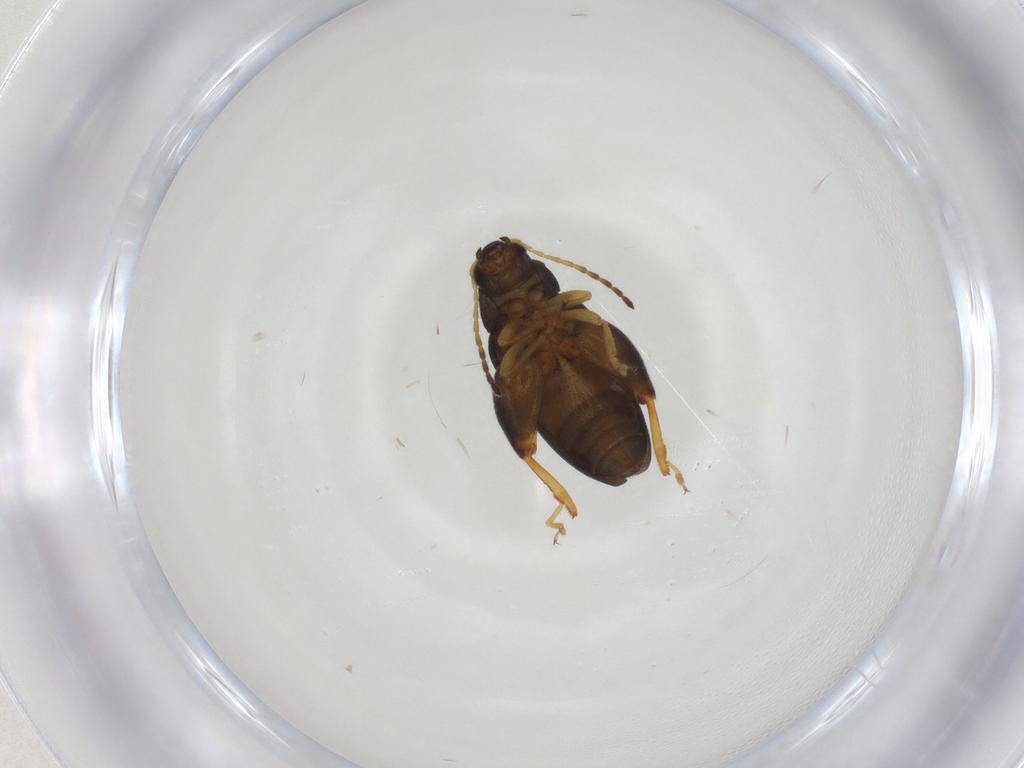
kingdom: Animalia
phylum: Arthropoda
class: Insecta
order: Coleoptera
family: Chrysomelidae
